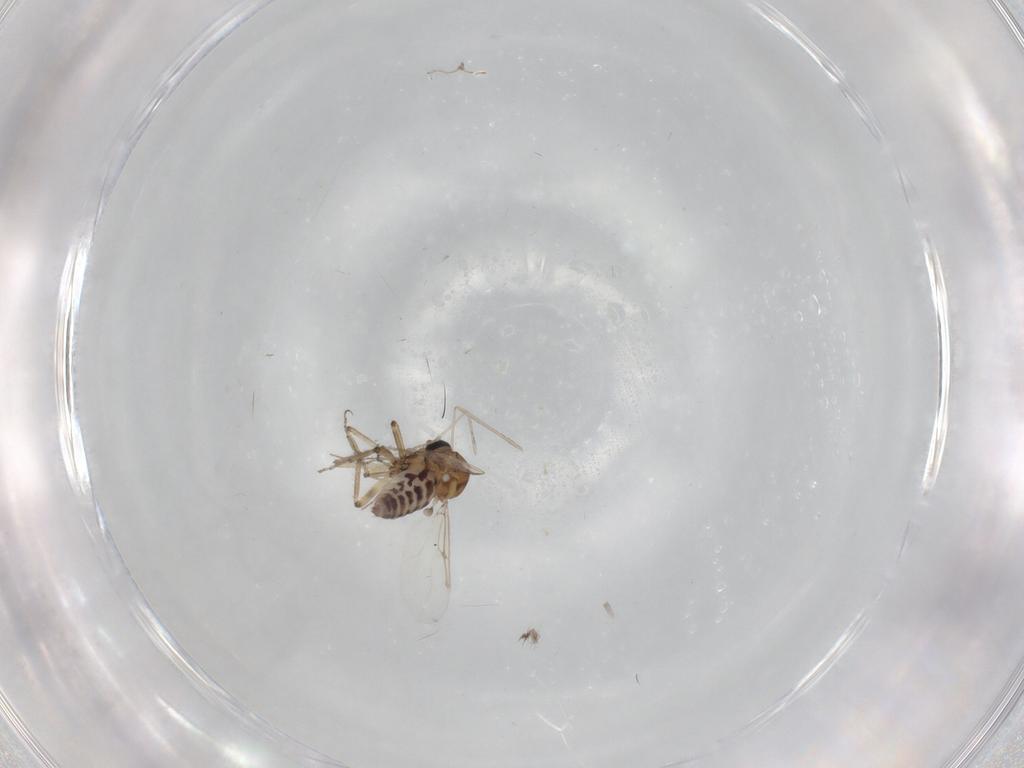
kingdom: Animalia
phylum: Arthropoda
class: Insecta
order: Diptera
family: Ceratopogonidae
